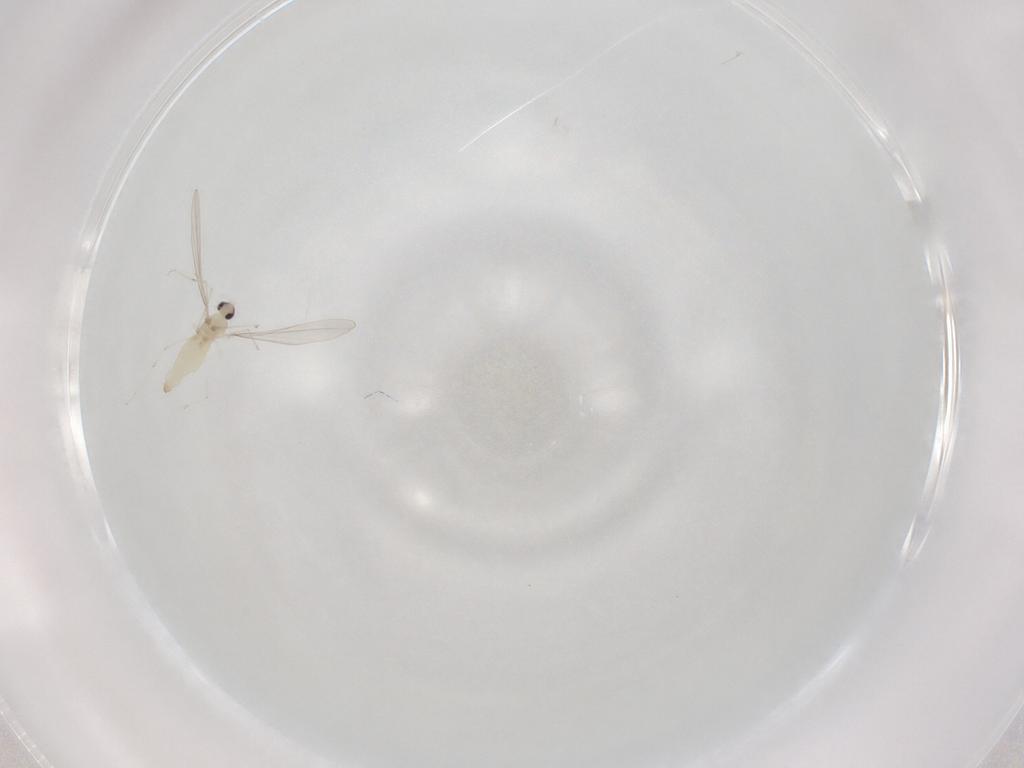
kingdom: Animalia
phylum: Arthropoda
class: Insecta
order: Diptera
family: Cecidomyiidae
